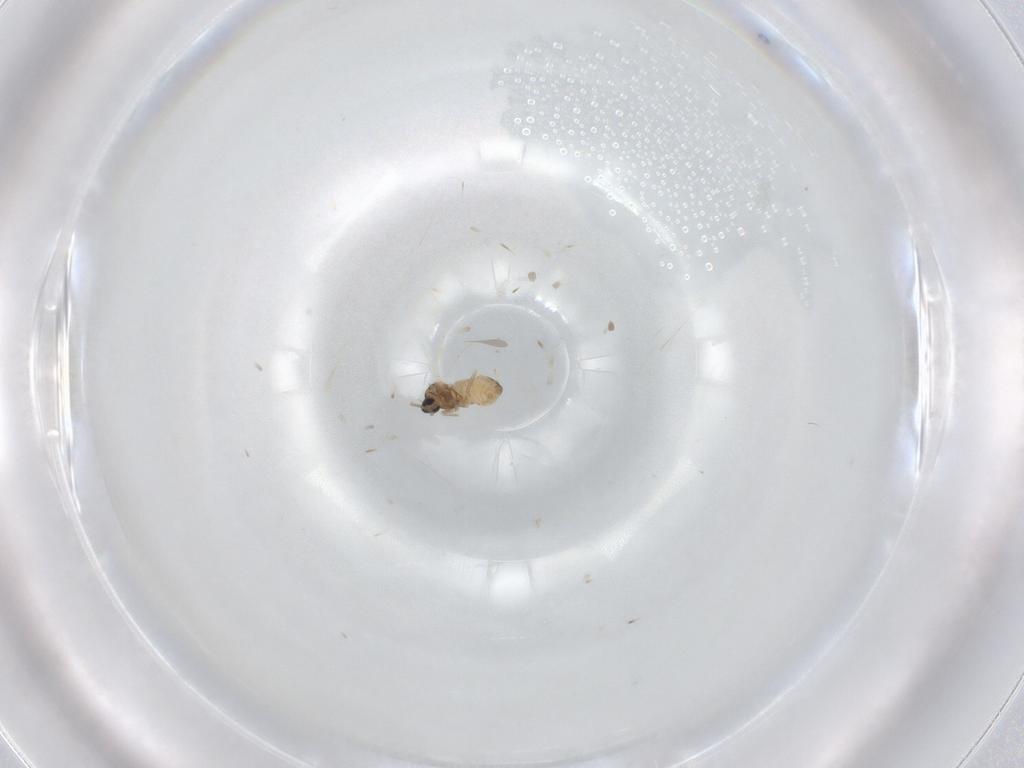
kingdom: Animalia
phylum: Arthropoda
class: Insecta
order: Diptera
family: Cecidomyiidae
